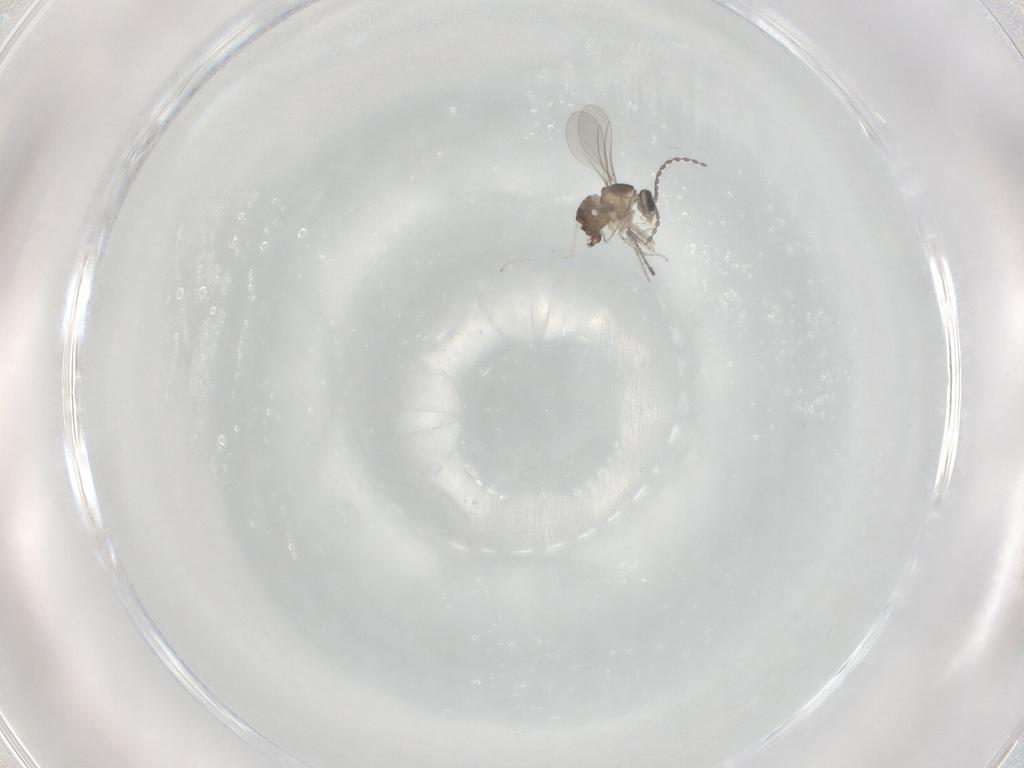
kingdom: Animalia
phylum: Arthropoda
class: Insecta
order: Diptera
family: Cecidomyiidae
